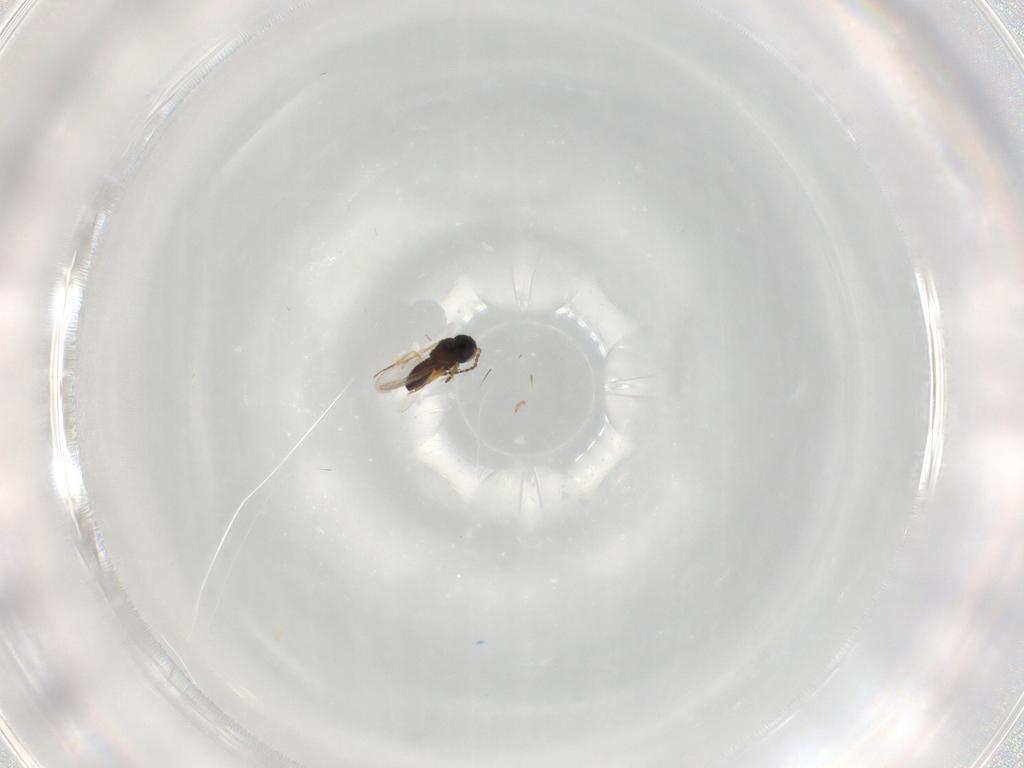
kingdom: Animalia
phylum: Arthropoda
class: Insecta
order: Hymenoptera
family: Scelionidae
